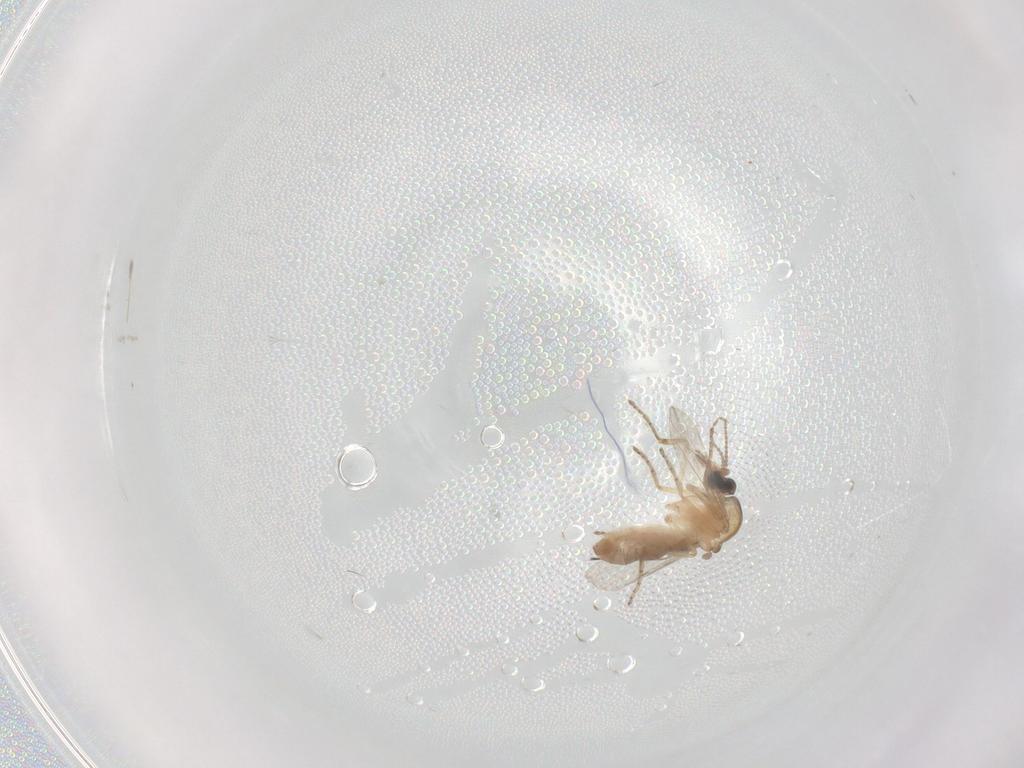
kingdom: Animalia
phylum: Arthropoda
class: Insecta
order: Diptera
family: Ceratopogonidae
